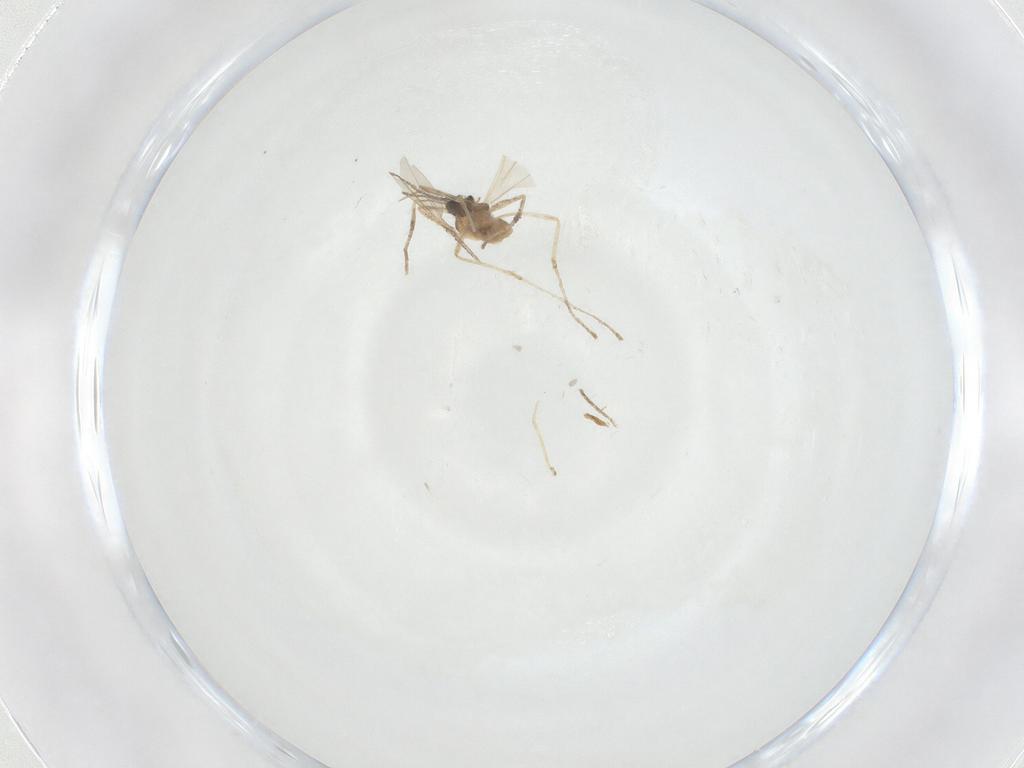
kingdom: Animalia
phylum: Arthropoda
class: Insecta
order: Diptera
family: Cecidomyiidae
